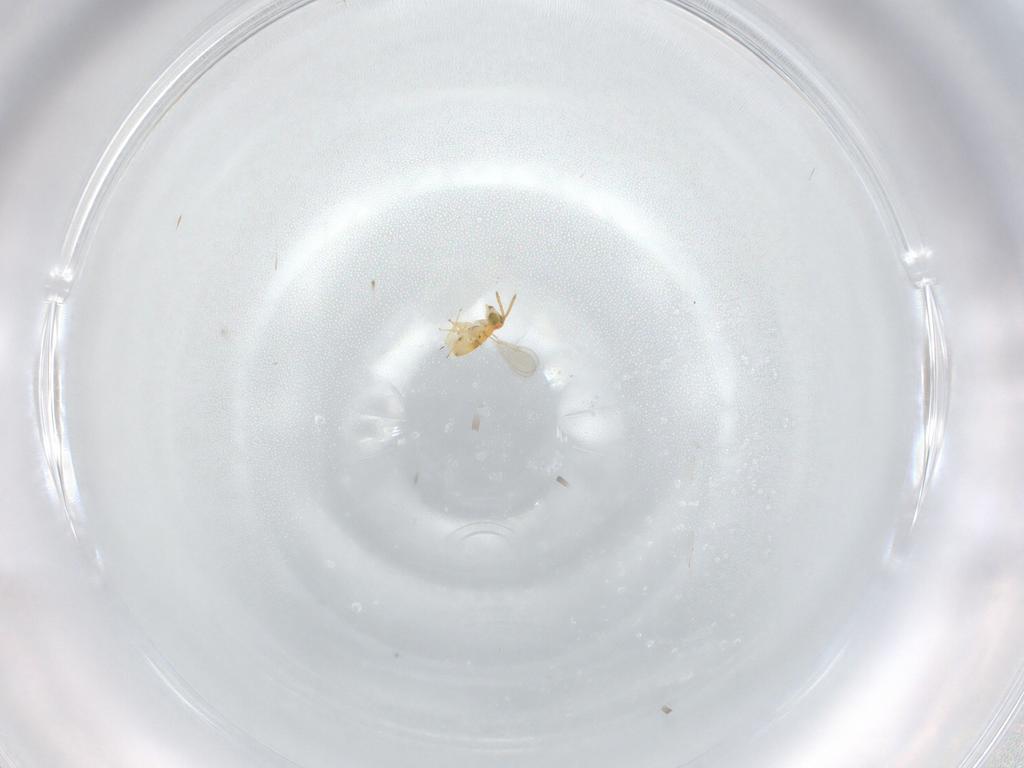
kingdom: Animalia
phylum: Arthropoda
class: Insecta
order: Hymenoptera
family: Aphelinidae
